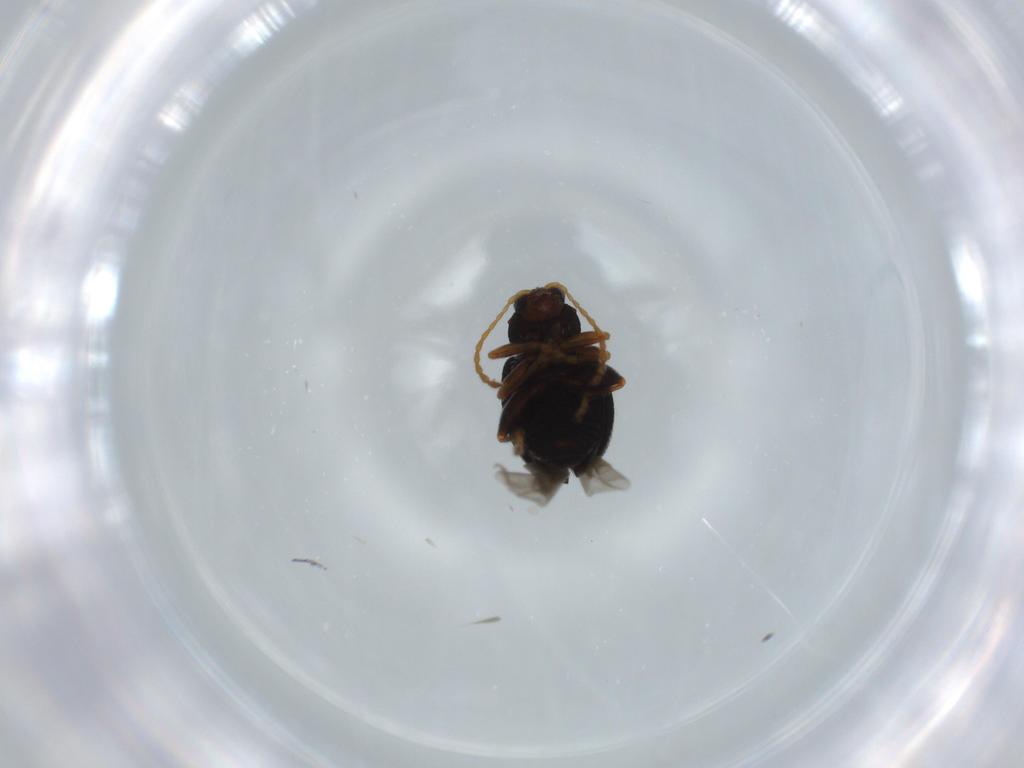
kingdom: Animalia
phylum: Arthropoda
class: Insecta
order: Coleoptera
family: Chrysomelidae
